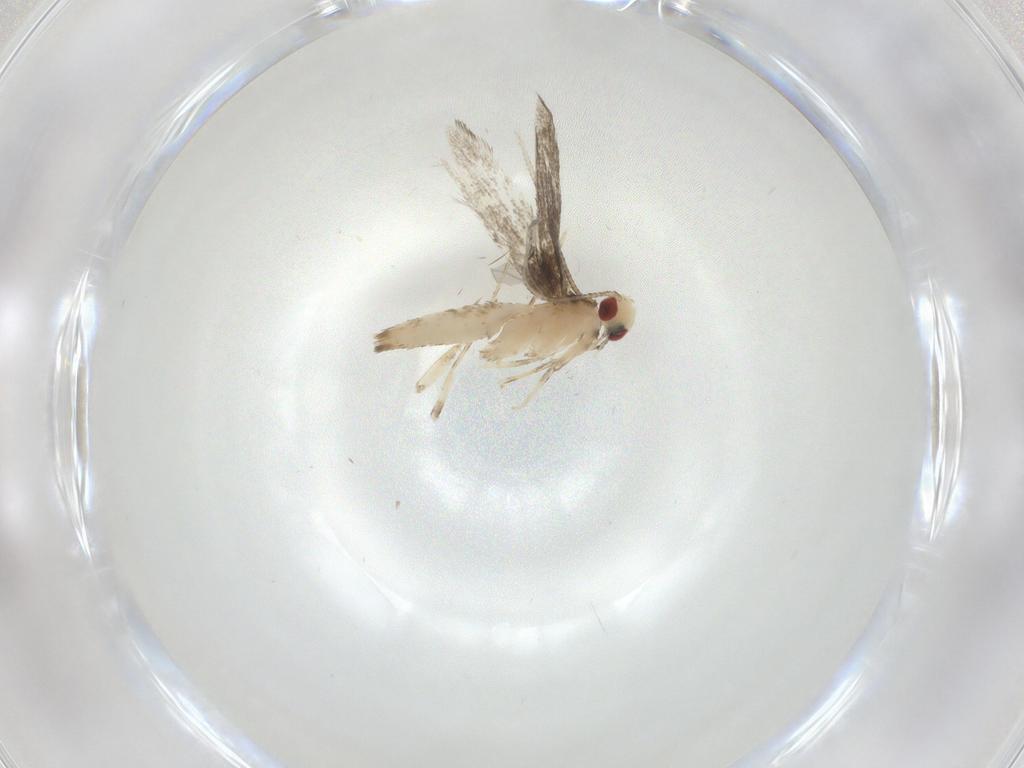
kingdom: Animalia
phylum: Arthropoda
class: Insecta
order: Lepidoptera
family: Gracillariidae
